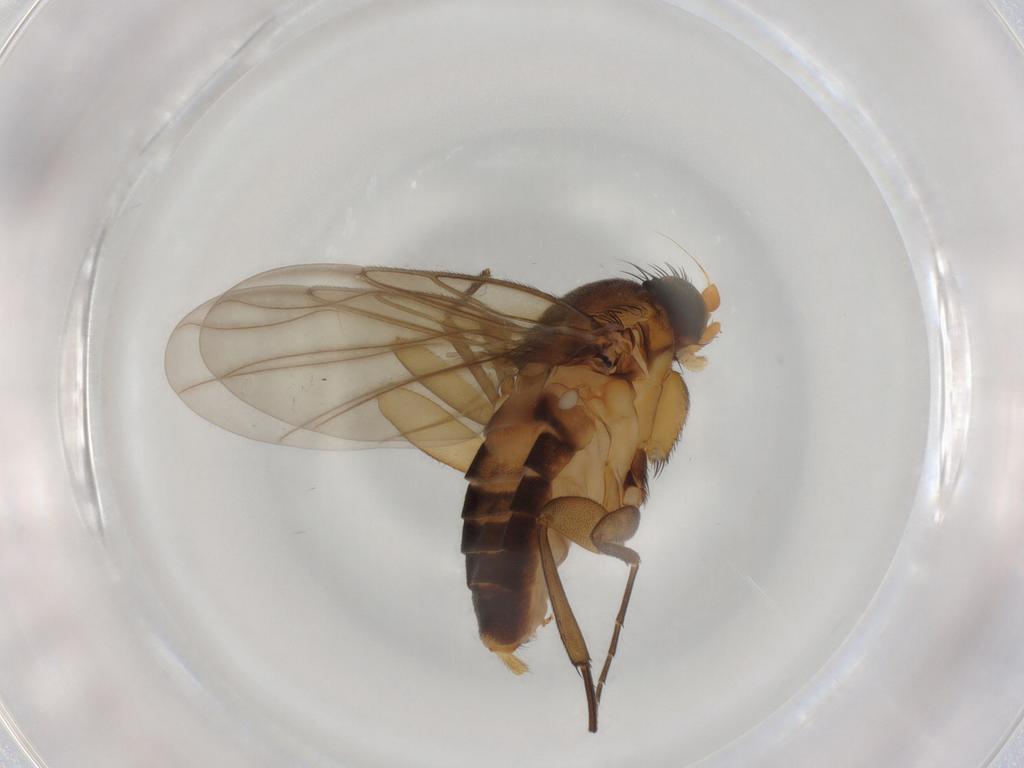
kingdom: Animalia
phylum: Arthropoda
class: Insecta
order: Diptera
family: Phoridae
